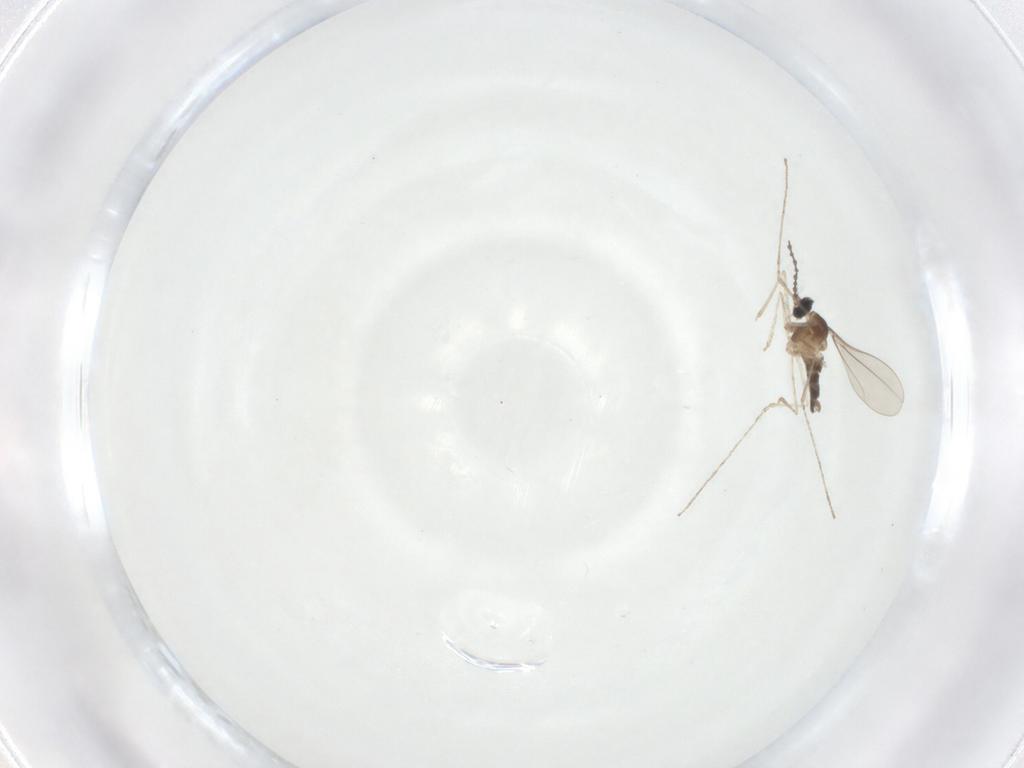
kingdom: Animalia
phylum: Arthropoda
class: Insecta
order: Diptera
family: Cecidomyiidae
